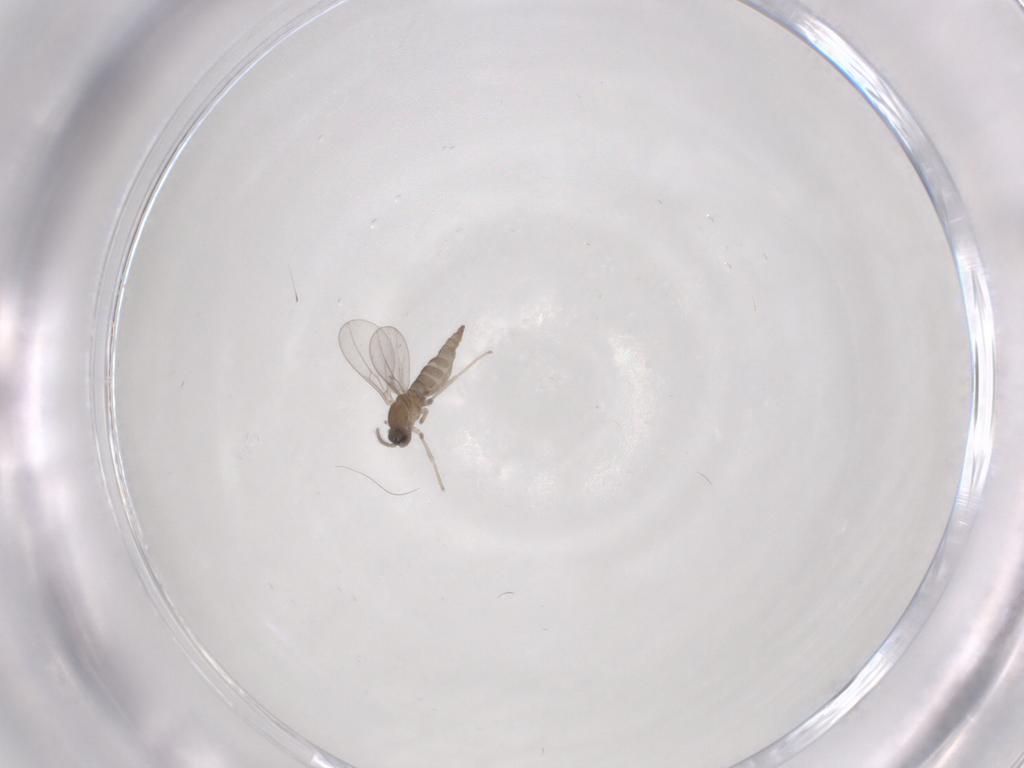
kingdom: Animalia
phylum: Arthropoda
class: Insecta
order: Diptera
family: Cecidomyiidae
